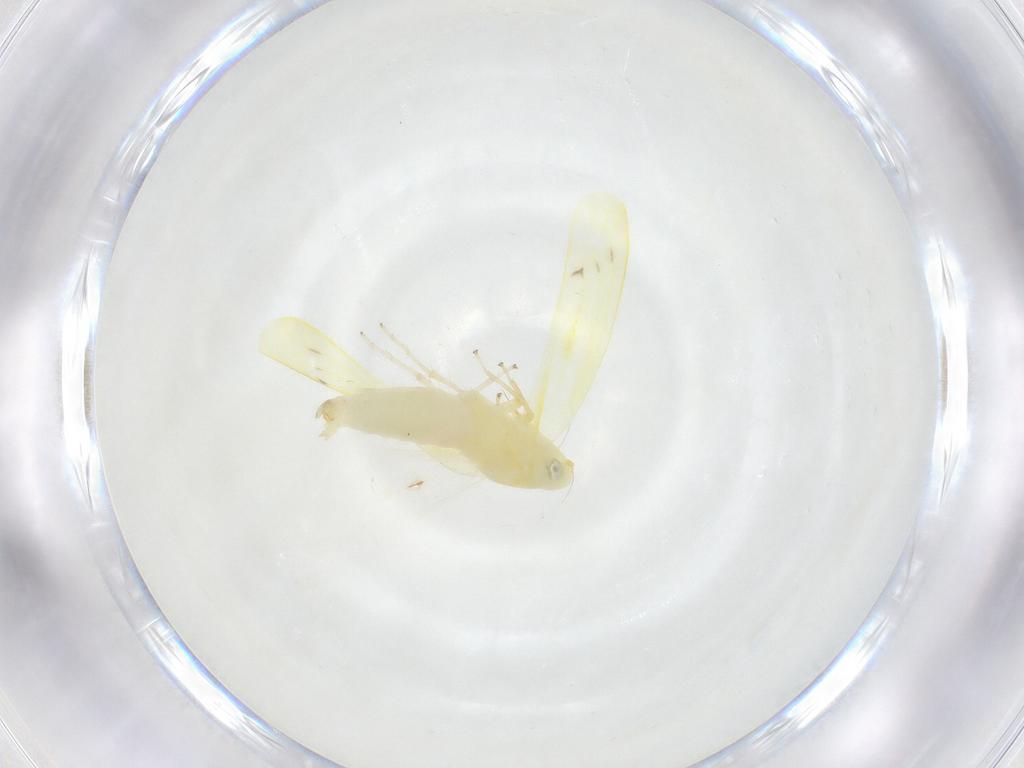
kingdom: Animalia
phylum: Arthropoda
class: Insecta
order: Hemiptera
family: Cicadellidae
